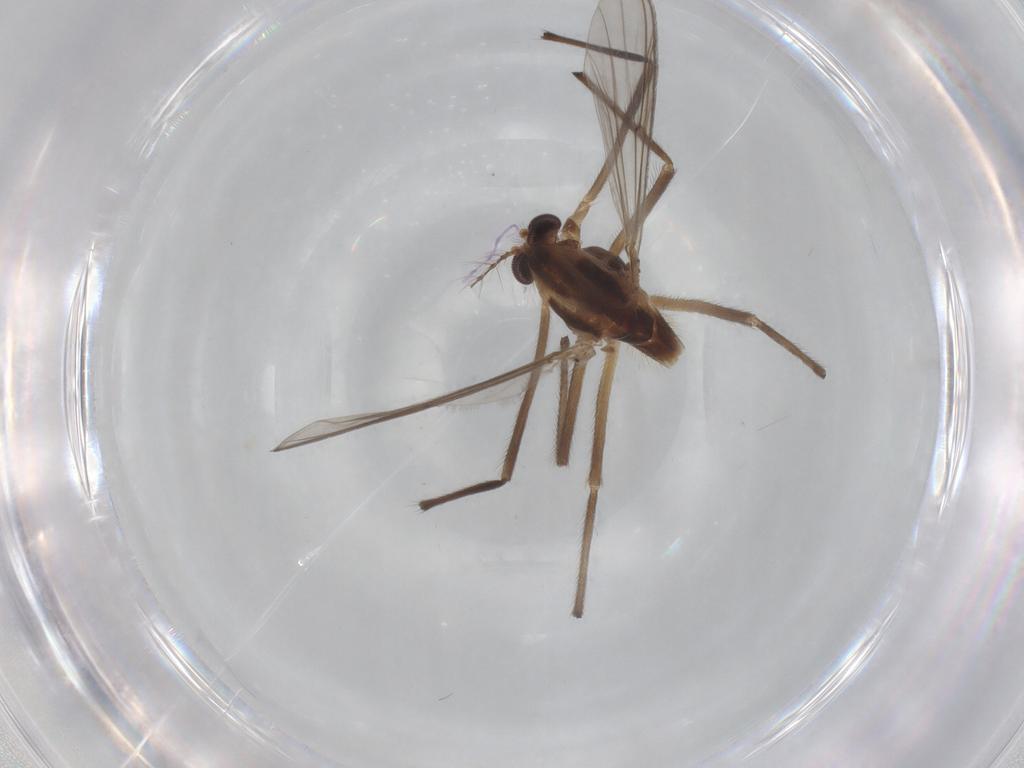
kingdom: Animalia
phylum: Arthropoda
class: Insecta
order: Diptera
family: Chironomidae
